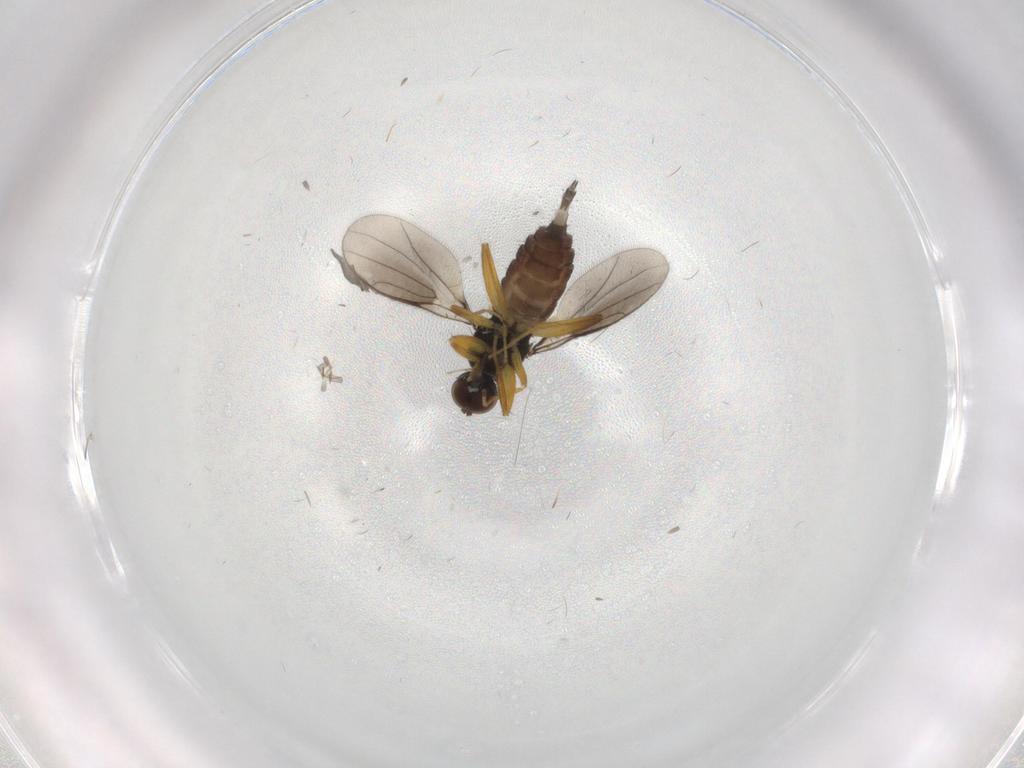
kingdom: Animalia
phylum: Arthropoda
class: Insecta
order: Diptera
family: Hybotidae
